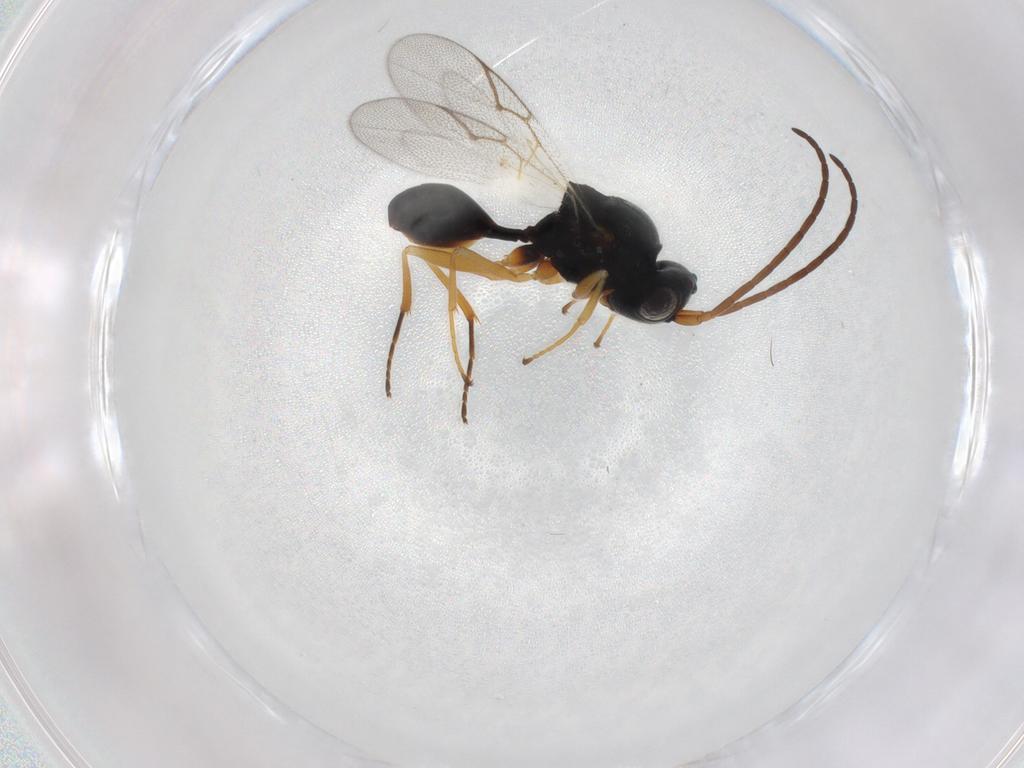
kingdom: Animalia
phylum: Arthropoda
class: Insecta
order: Hymenoptera
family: Figitidae
